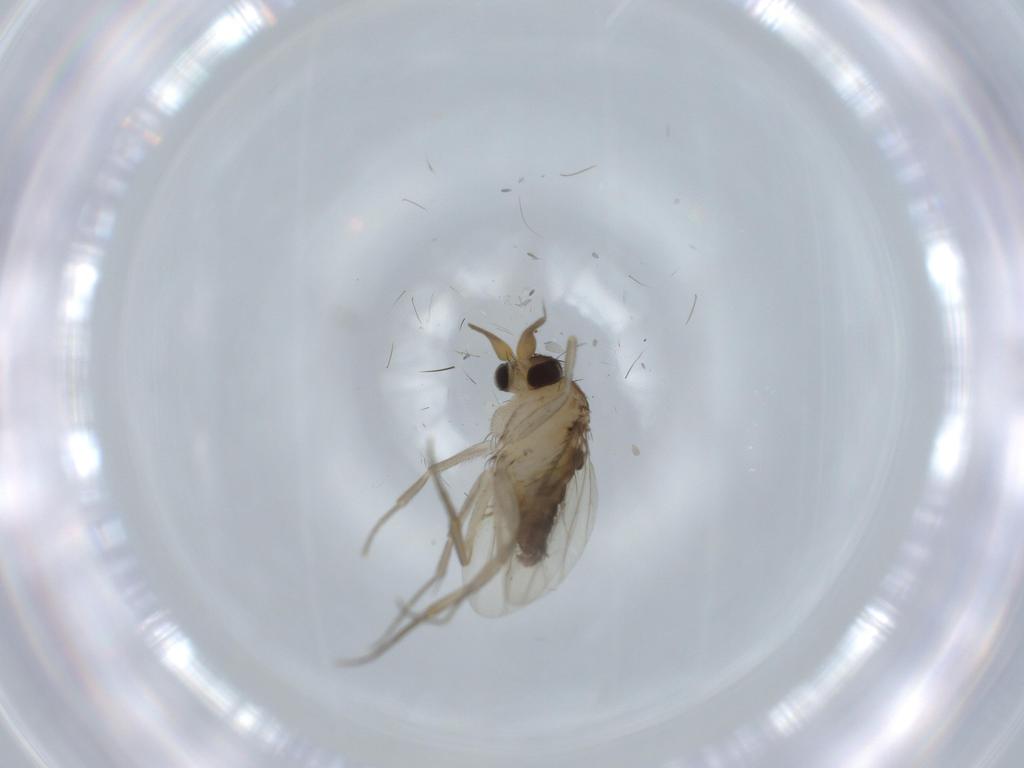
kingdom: Animalia
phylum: Arthropoda
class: Insecta
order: Diptera
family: Phoridae
